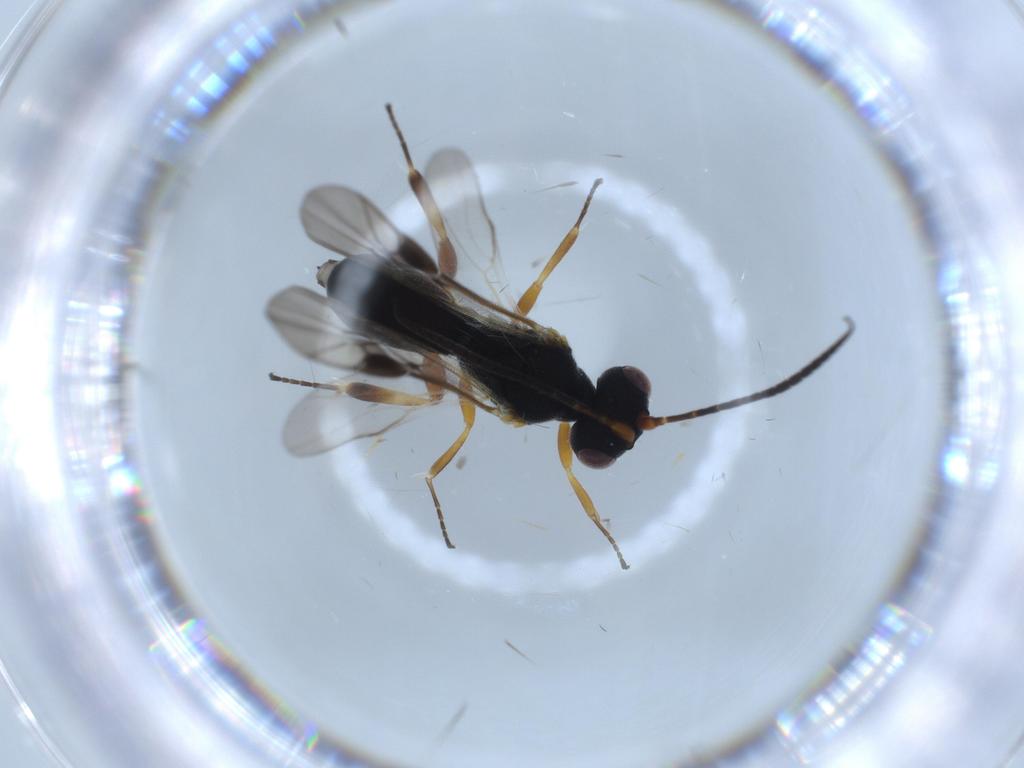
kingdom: Animalia
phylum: Arthropoda
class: Insecta
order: Hymenoptera
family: Braconidae
